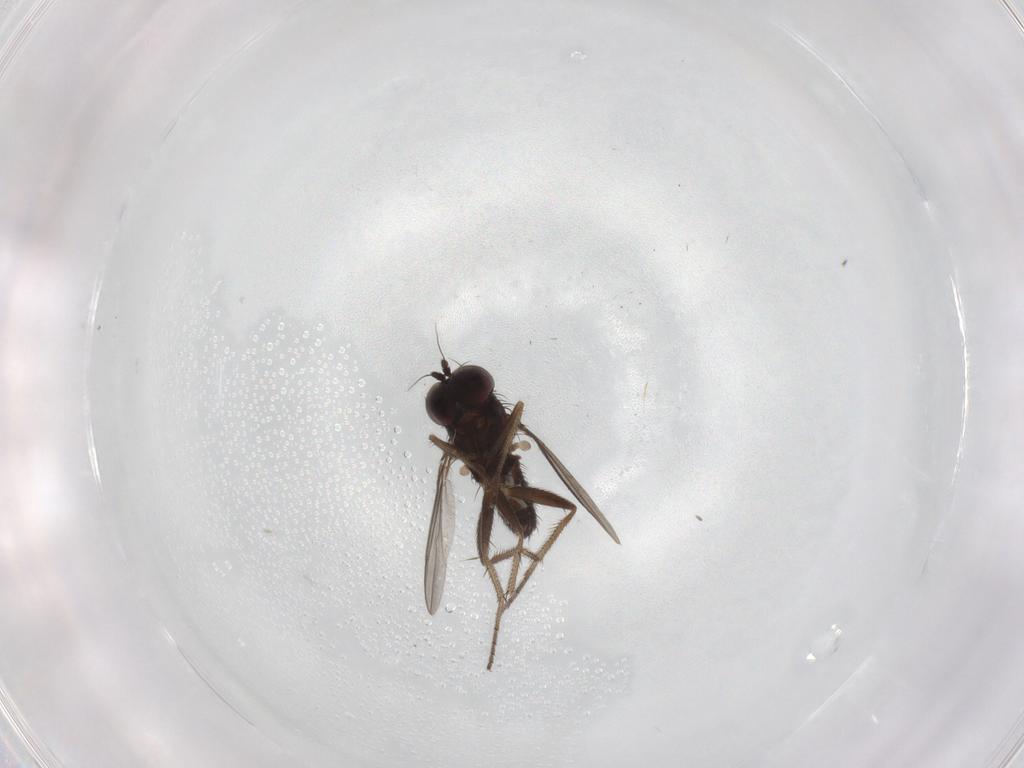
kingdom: Animalia
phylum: Arthropoda
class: Insecta
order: Diptera
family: Dolichopodidae
